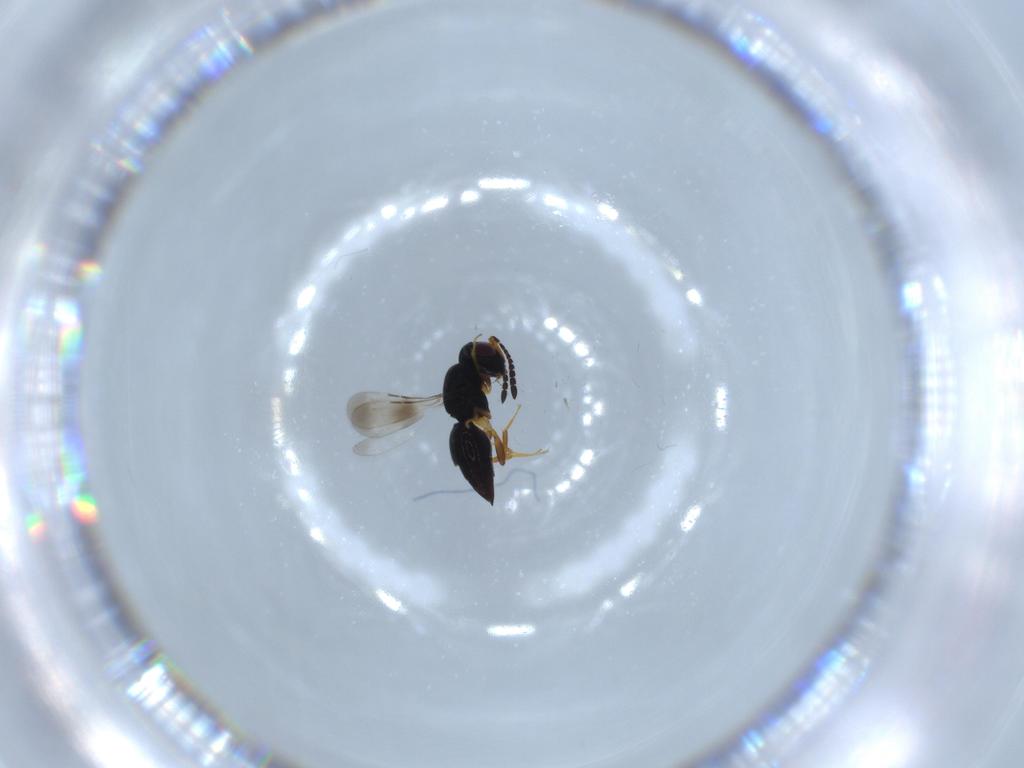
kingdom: Animalia
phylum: Arthropoda
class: Insecta
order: Hymenoptera
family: Ceraphronidae
